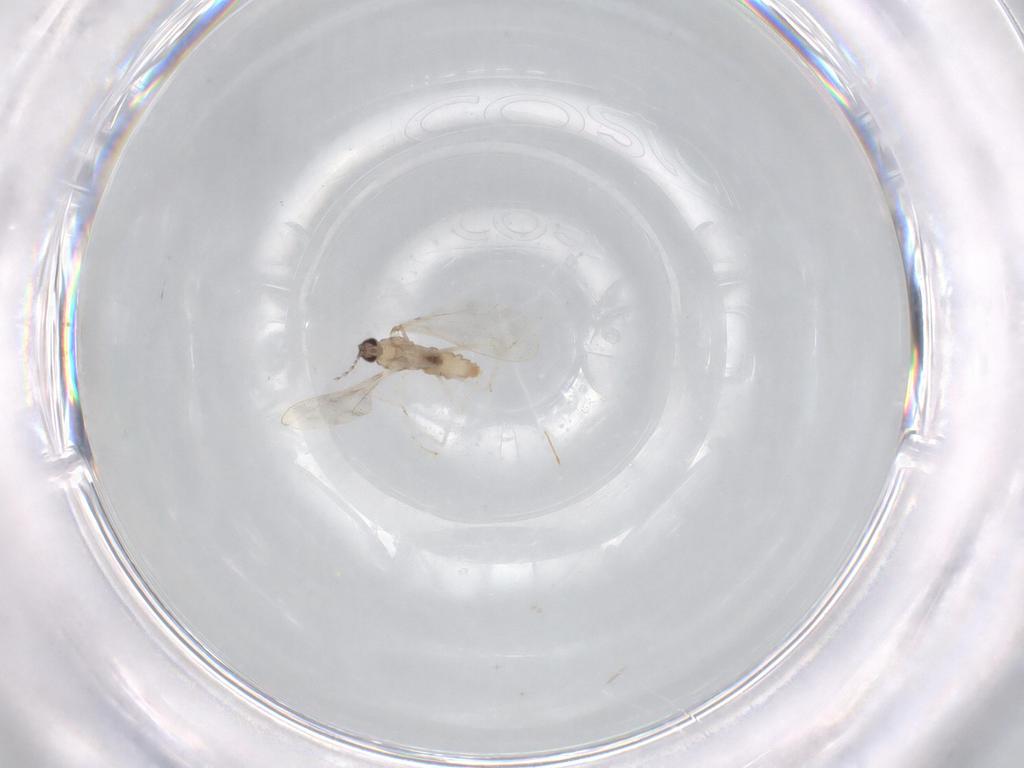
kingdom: Animalia
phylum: Arthropoda
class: Insecta
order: Diptera
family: Cecidomyiidae
